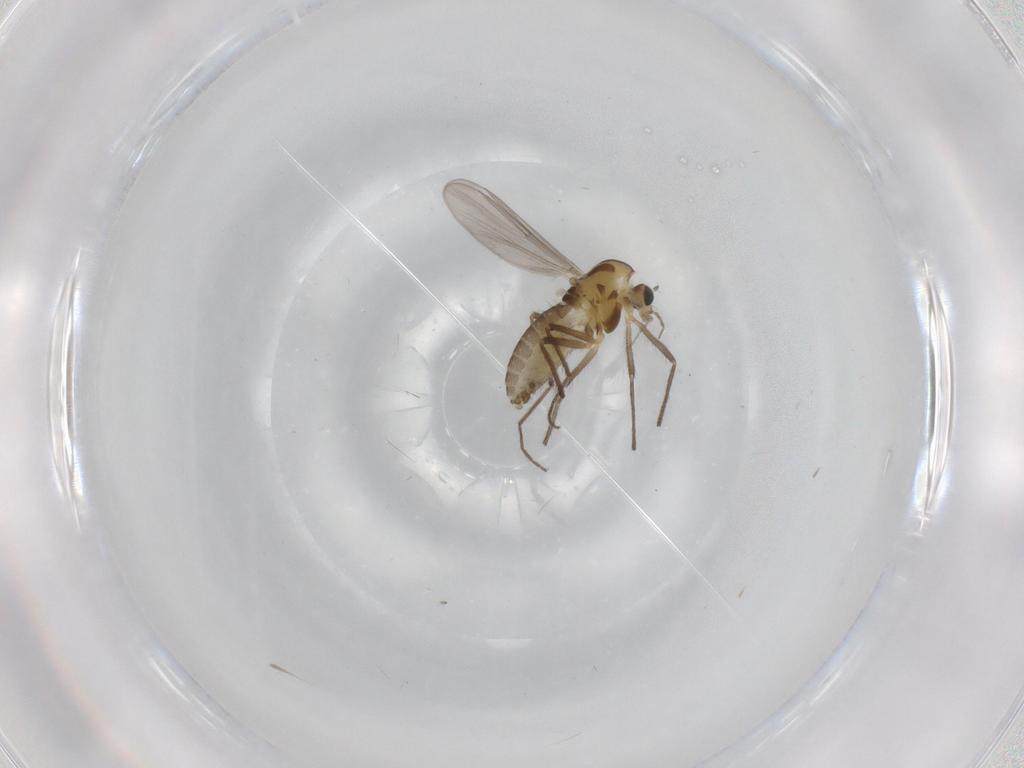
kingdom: Animalia
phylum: Arthropoda
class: Insecta
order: Diptera
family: Chironomidae
